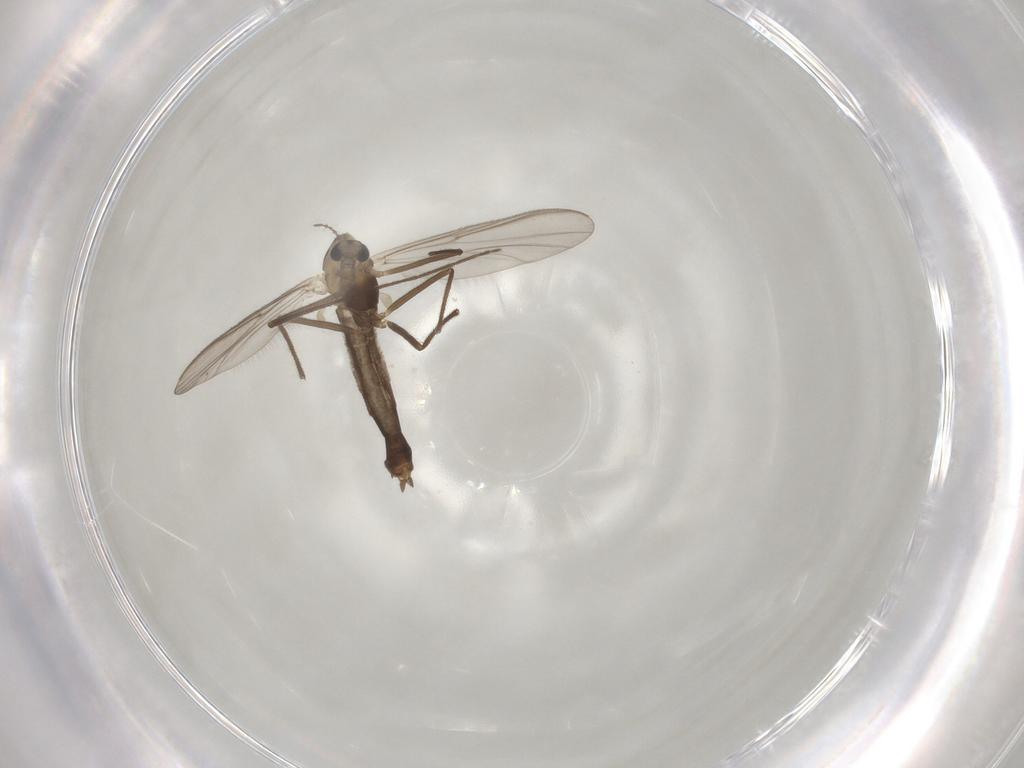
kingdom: Animalia
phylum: Arthropoda
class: Insecta
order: Diptera
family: Chironomidae
